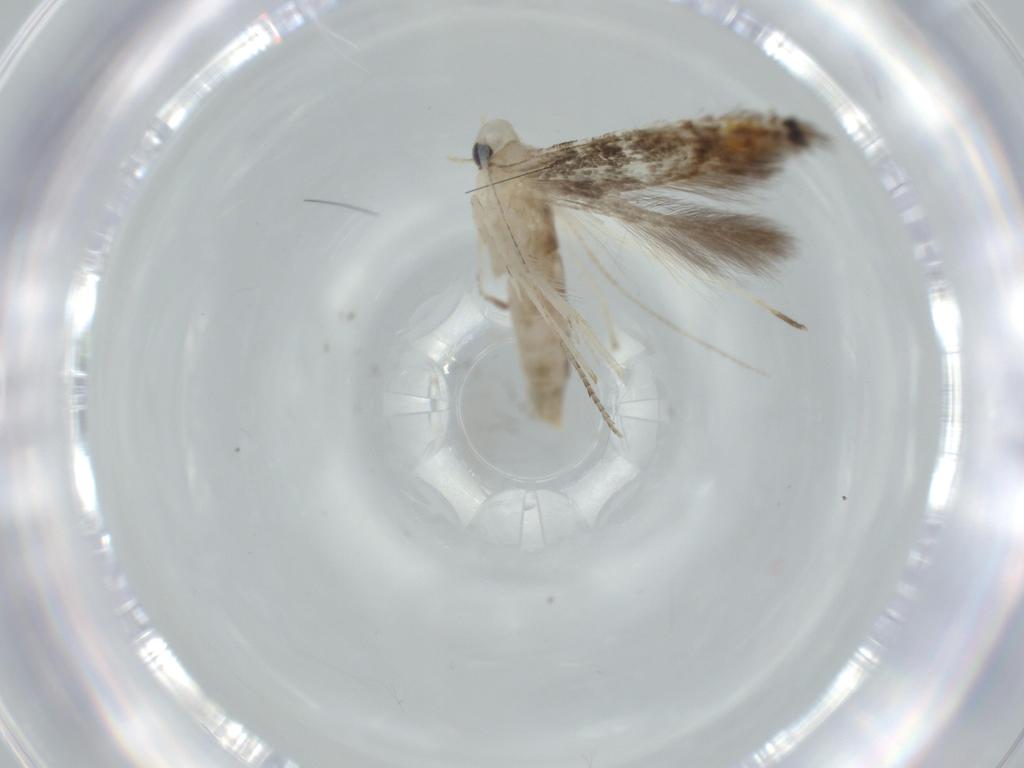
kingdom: Animalia
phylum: Arthropoda
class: Insecta
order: Lepidoptera
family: Gracillariidae
